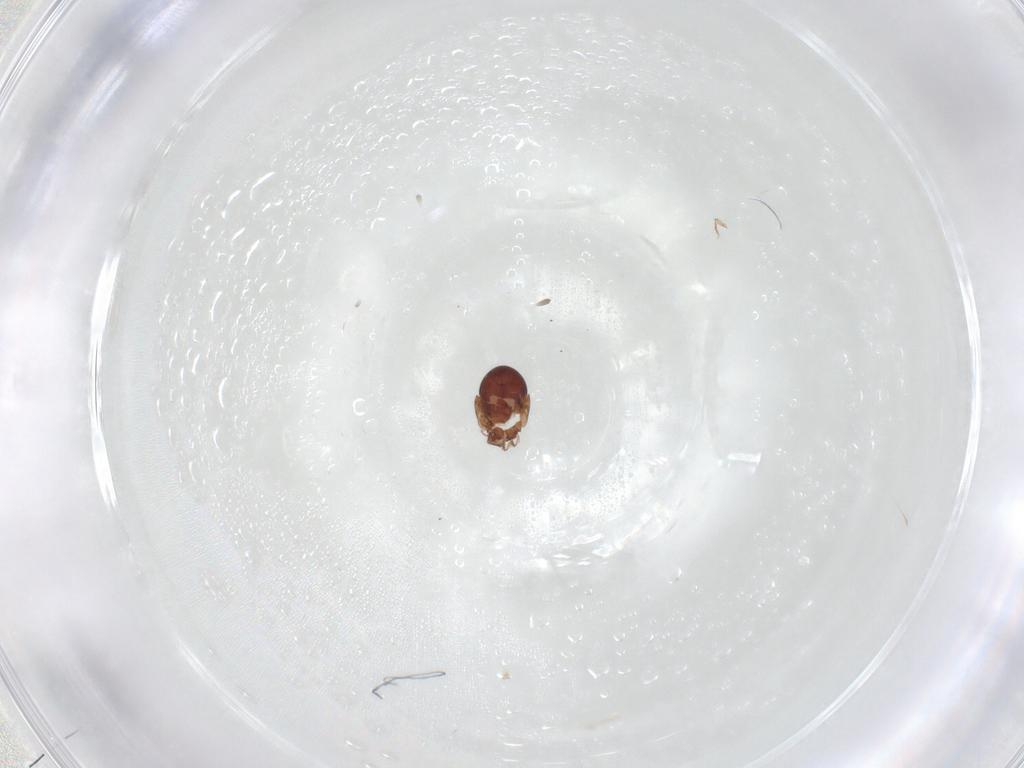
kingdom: Animalia
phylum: Arthropoda
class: Arachnida
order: Sarcoptiformes
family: Galumnidae
